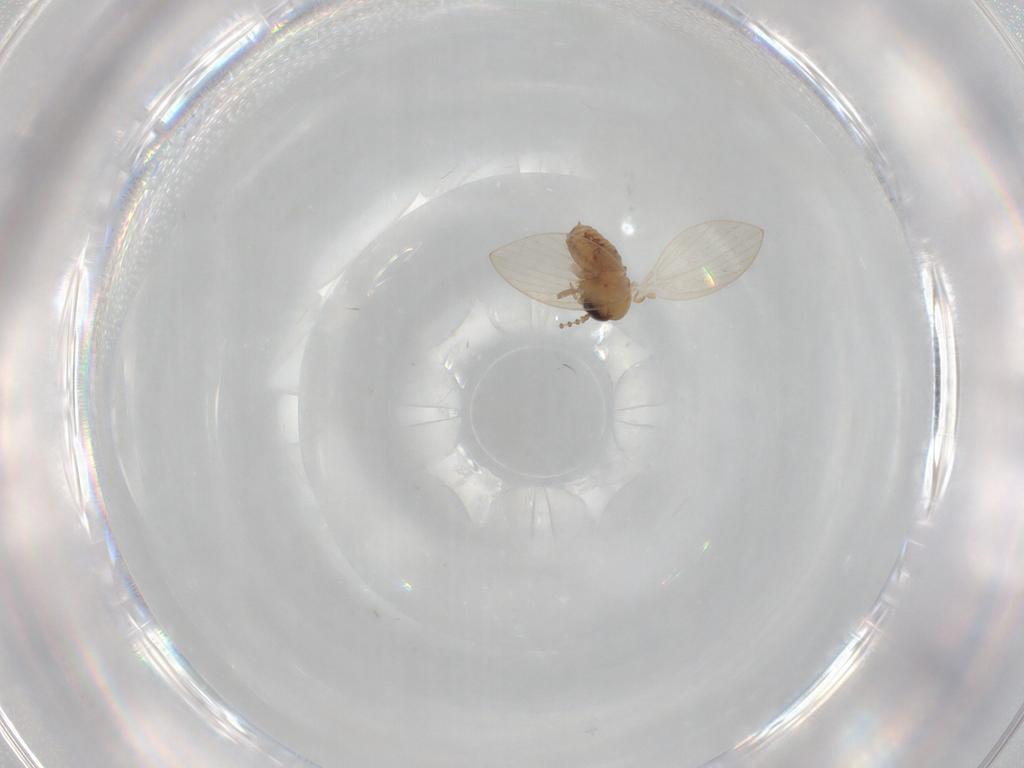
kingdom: Animalia
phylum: Arthropoda
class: Insecta
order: Diptera
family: Psychodidae
